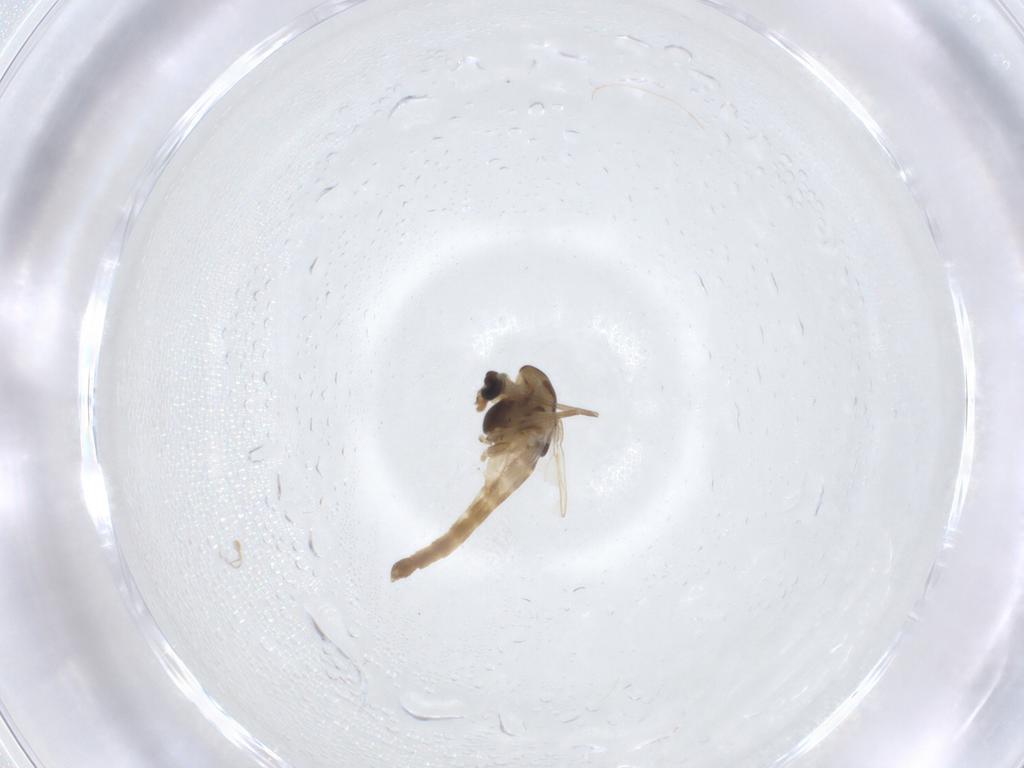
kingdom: Animalia
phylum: Arthropoda
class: Insecta
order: Diptera
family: Chironomidae
